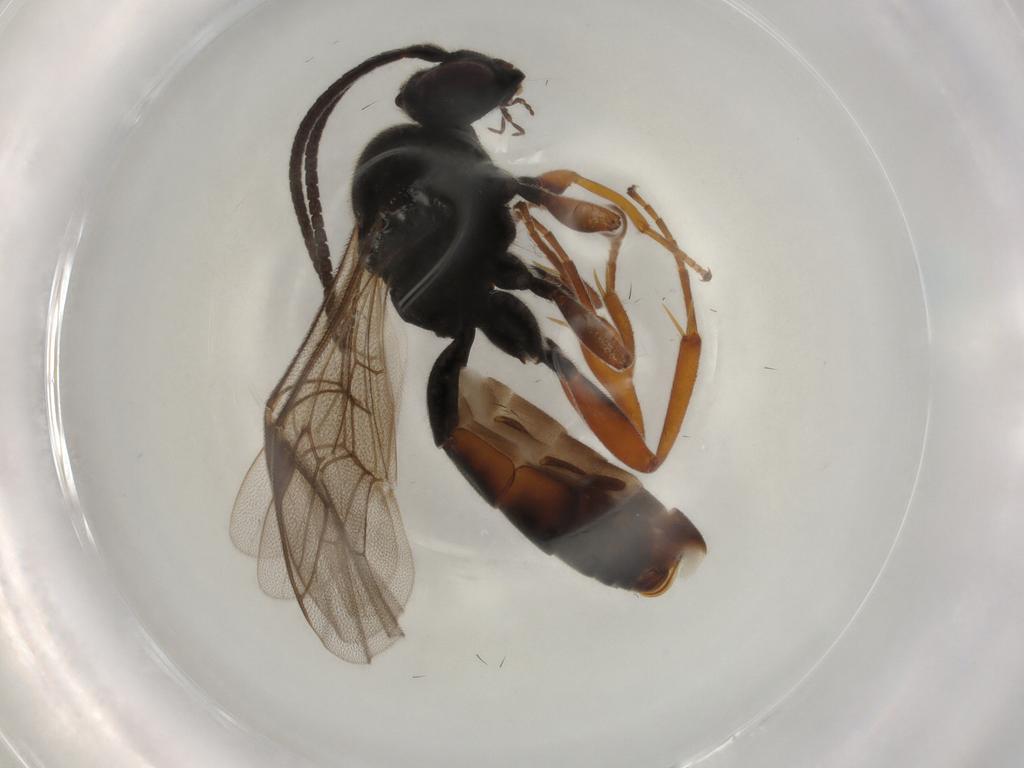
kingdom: Animalia
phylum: Arthropoda
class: Insecta
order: Hymenoptera
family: Ichneumonidae
